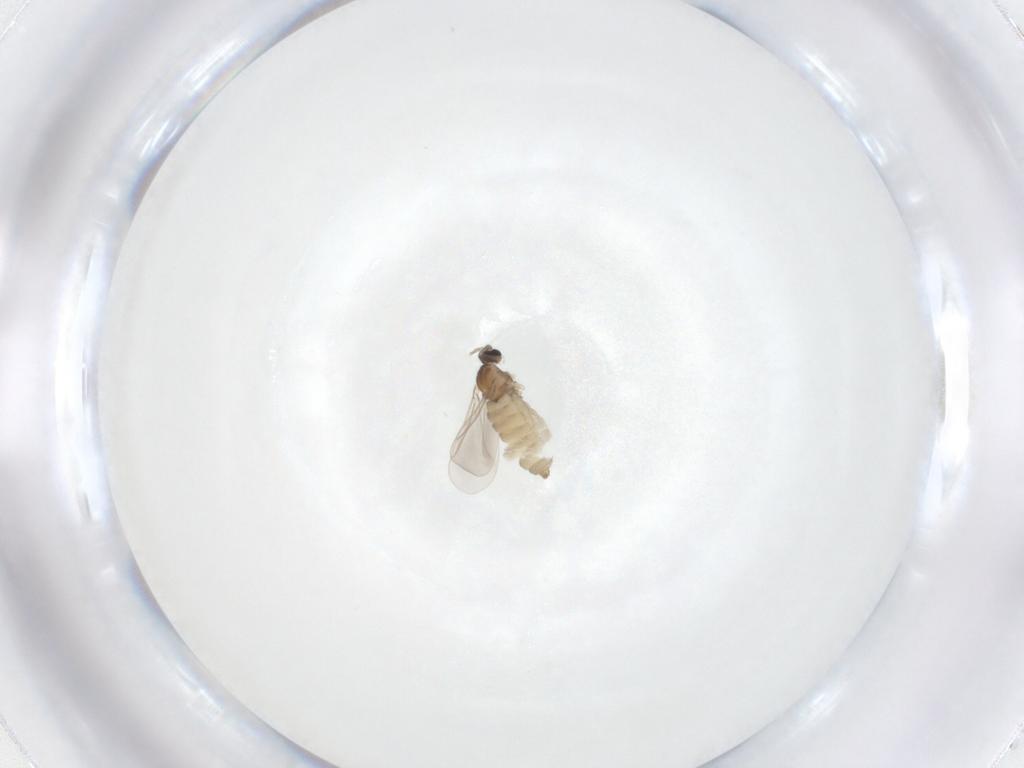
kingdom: Animalia
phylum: Arthropoda
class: Insecta
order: Diptera
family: Cecidomyiidae
